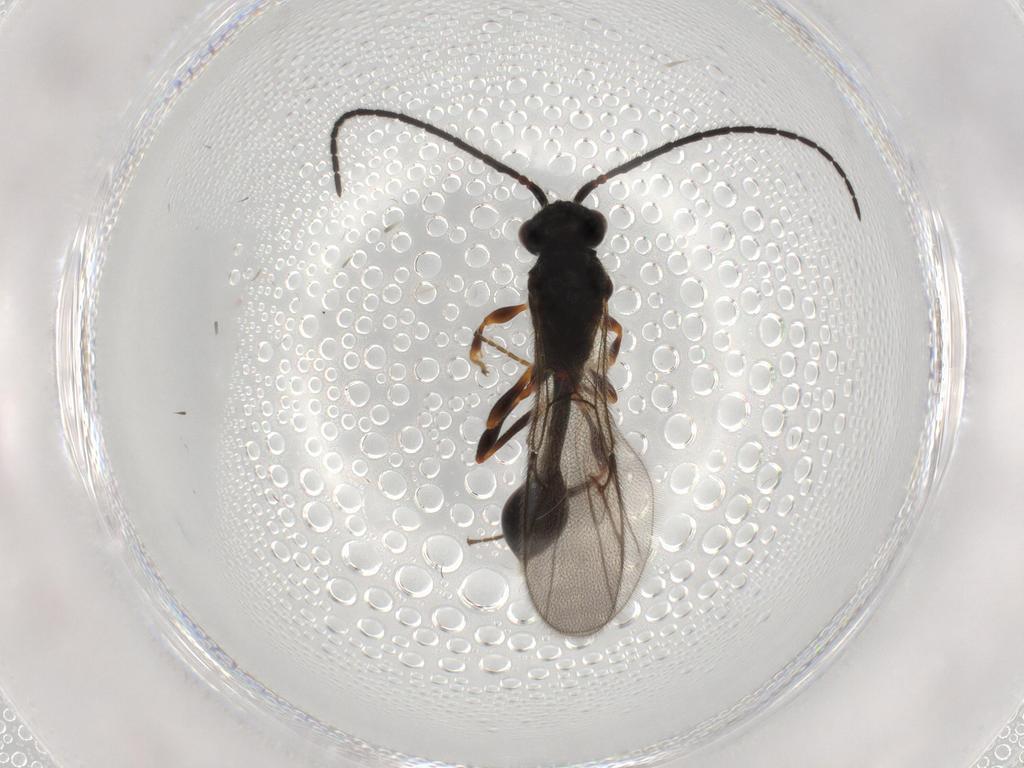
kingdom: Animalia
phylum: Arthropoda
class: Insecta
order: Hymenoptera
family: Diapriidae
